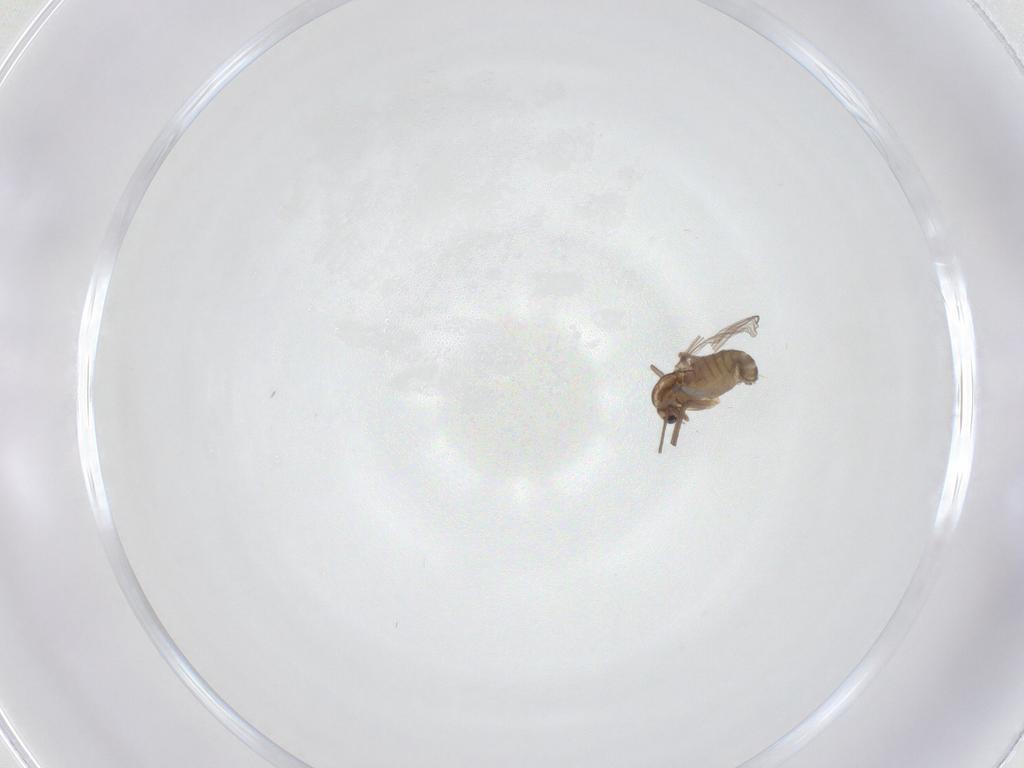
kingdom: Animalia
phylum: Arthropoda
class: Insecta
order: Diptera
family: Chironomidae
